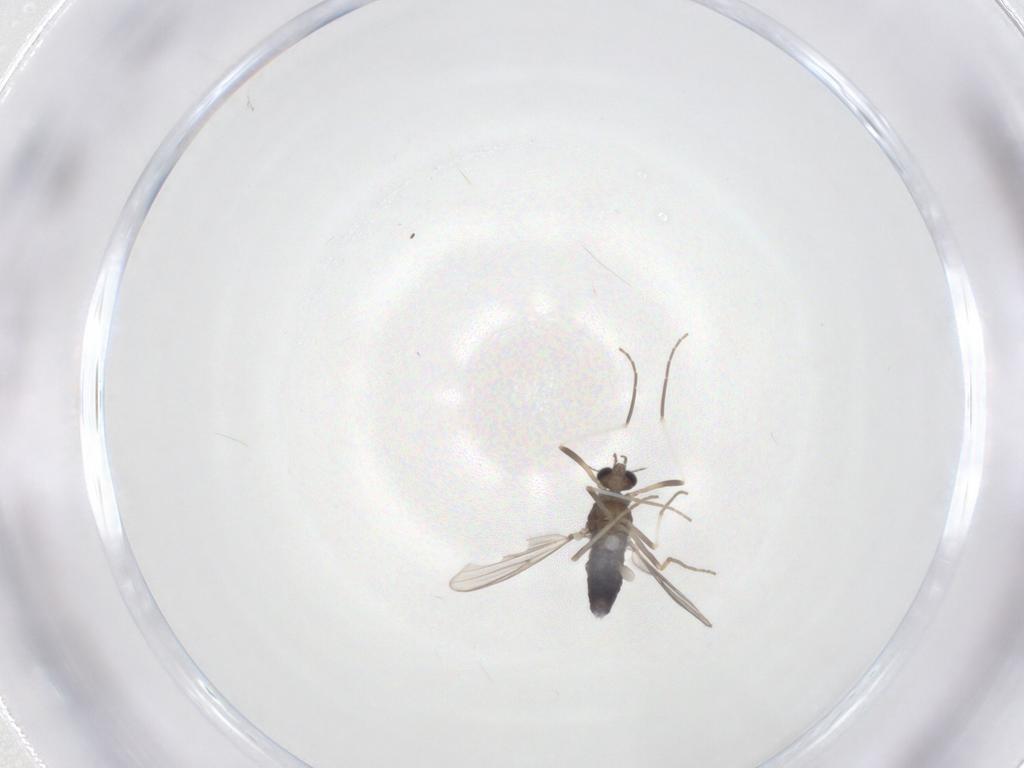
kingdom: Animalia
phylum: Arthropoda
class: Insecta
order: Diptera
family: Chironomidae
